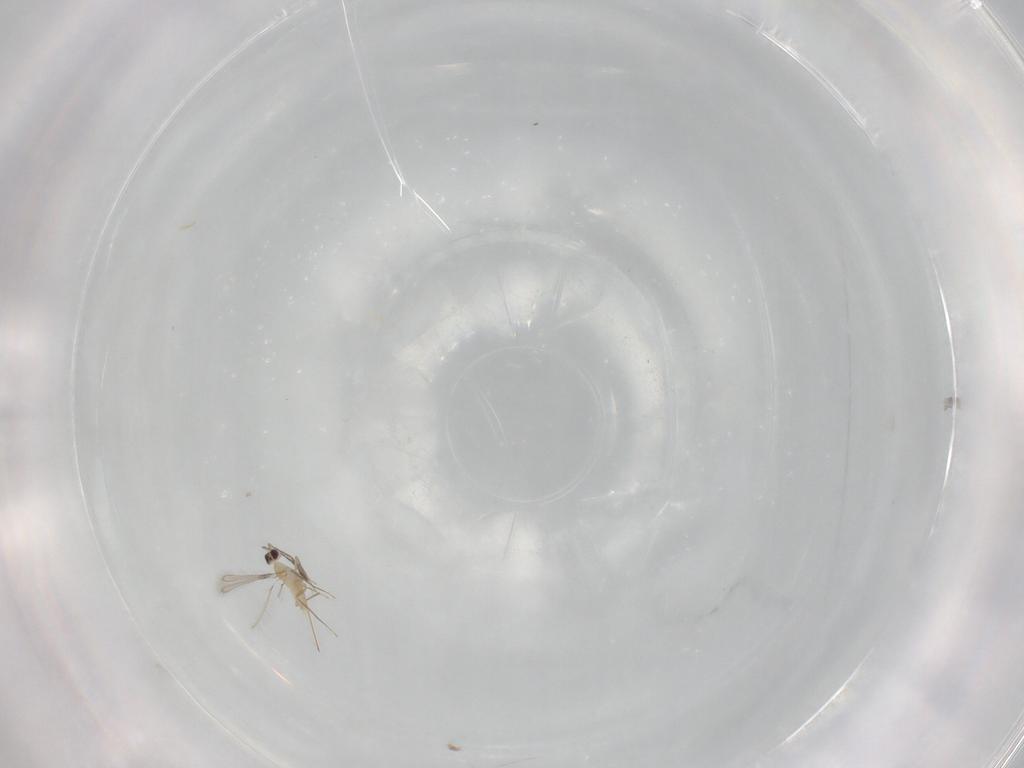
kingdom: Animalia
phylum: Arthropoda
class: Insecta
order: Hymenoptera
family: Mymaridae
